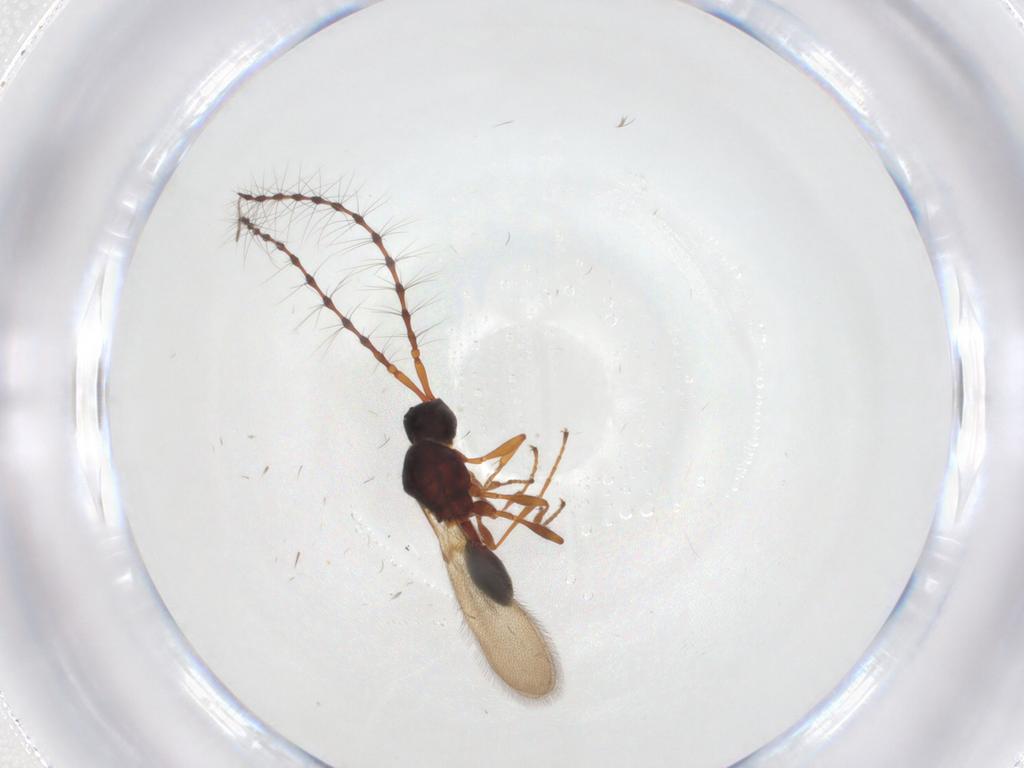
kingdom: Animalia
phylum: Arthropoda
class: Insecta
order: Hymenoptera
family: Diapriidae
